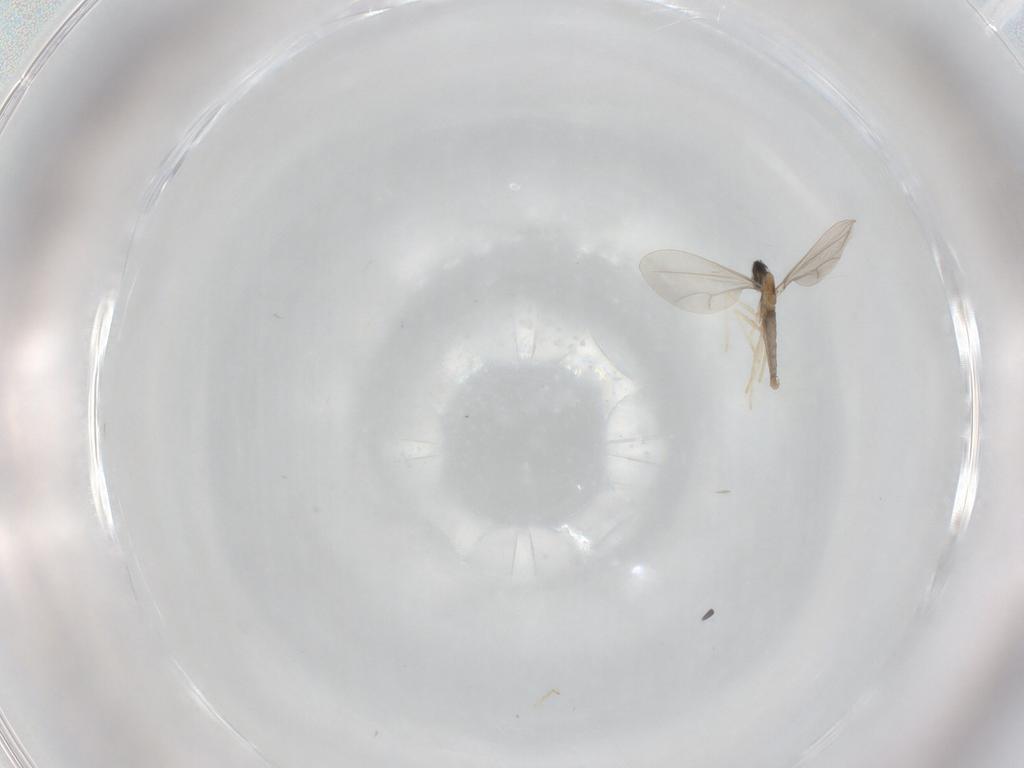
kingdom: Animalia
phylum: Arthropoda
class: Insecta
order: Diptera
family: Cecidomyiidae
